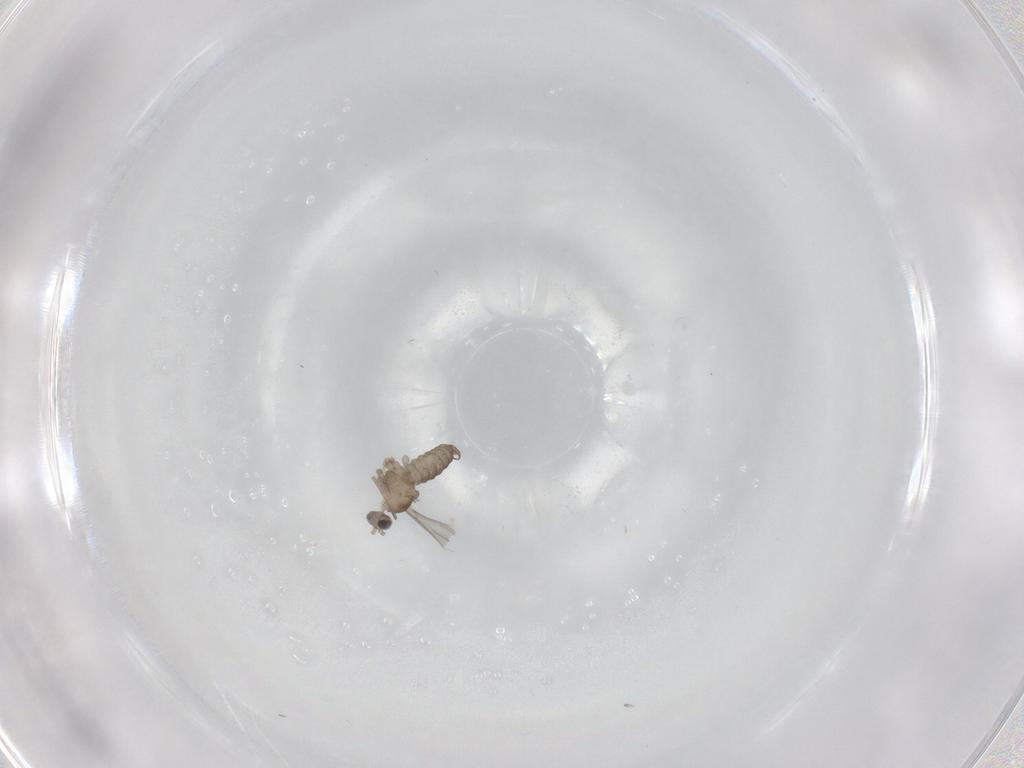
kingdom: Animalia
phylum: Arthropoda
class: Insecta
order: Diptera
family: Cecidomyiidae
